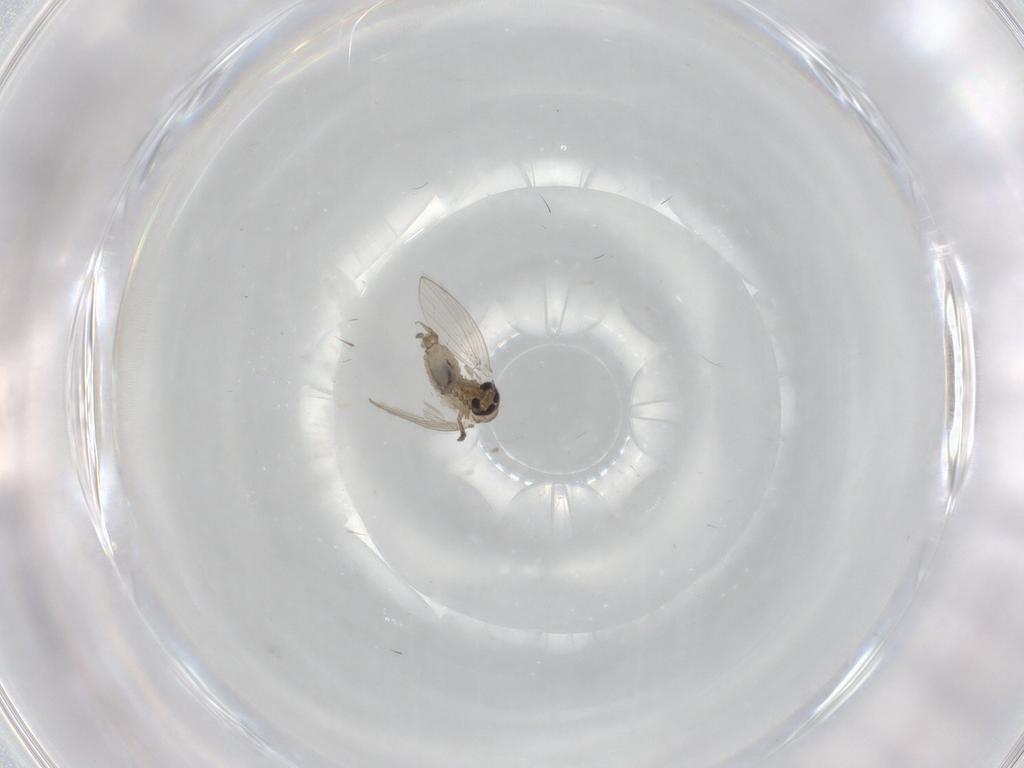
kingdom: Animalia
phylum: Arthropoda
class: Insecta
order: Diptera
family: Psychodidae
